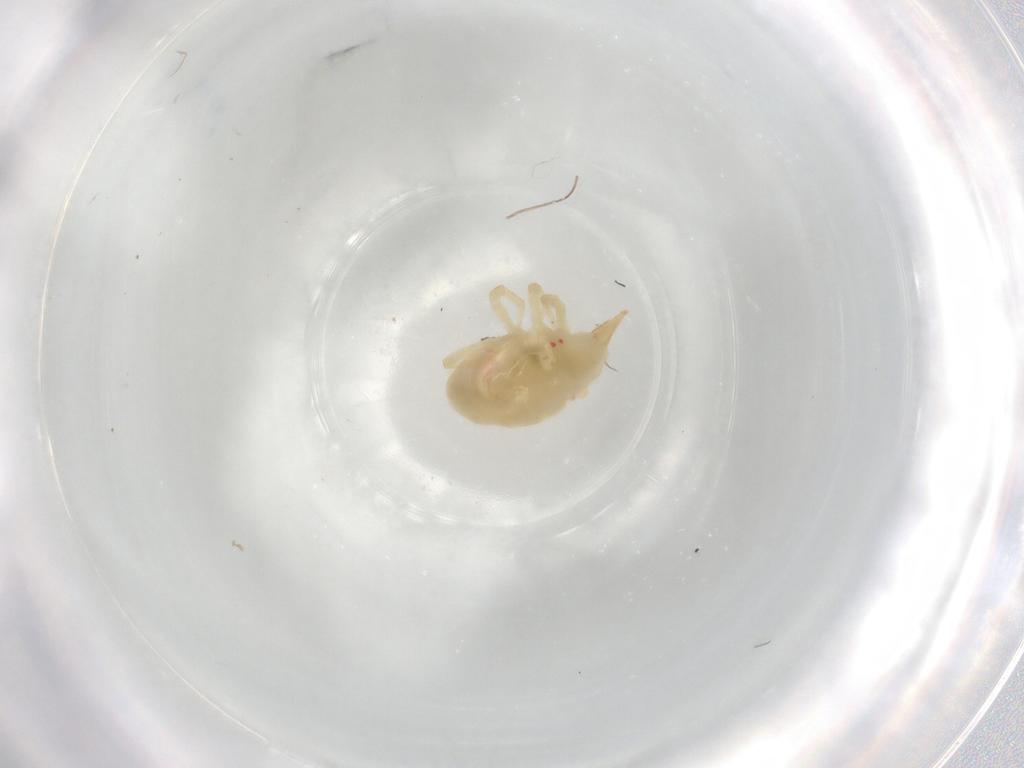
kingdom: Animalia
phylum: Arthropoda
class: Arachnida
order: Trombidiformes
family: Bdellidae
